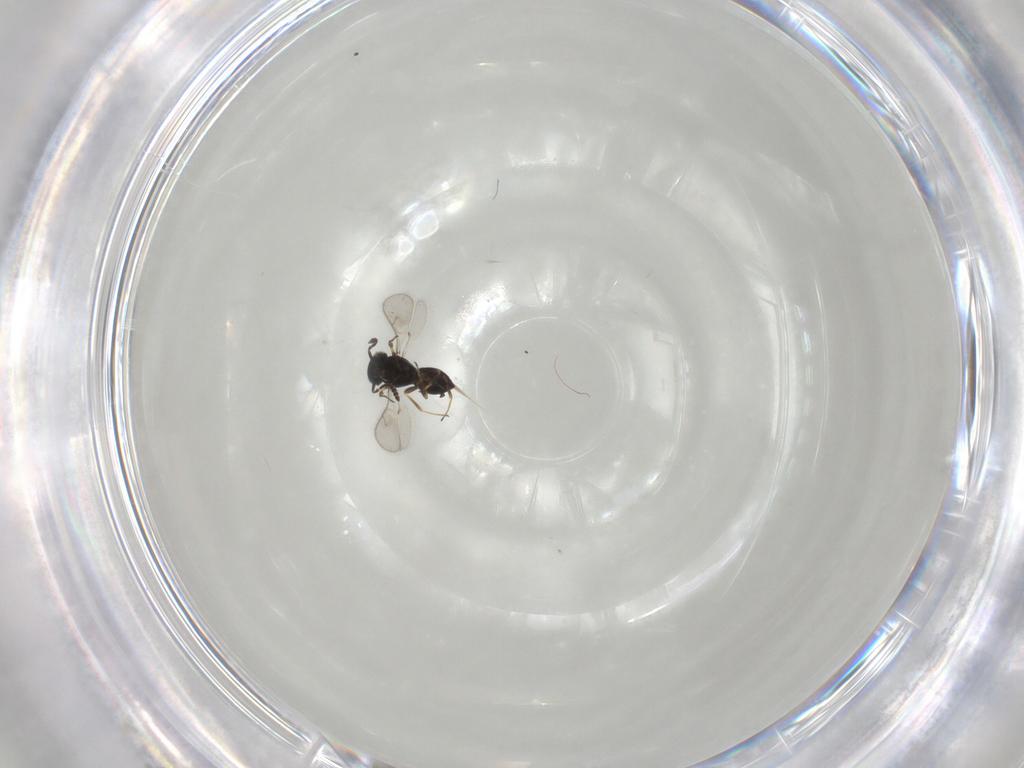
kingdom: Animalia
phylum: Arthropoda
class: Insecta
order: Hymenoptera
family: Scelionidae
